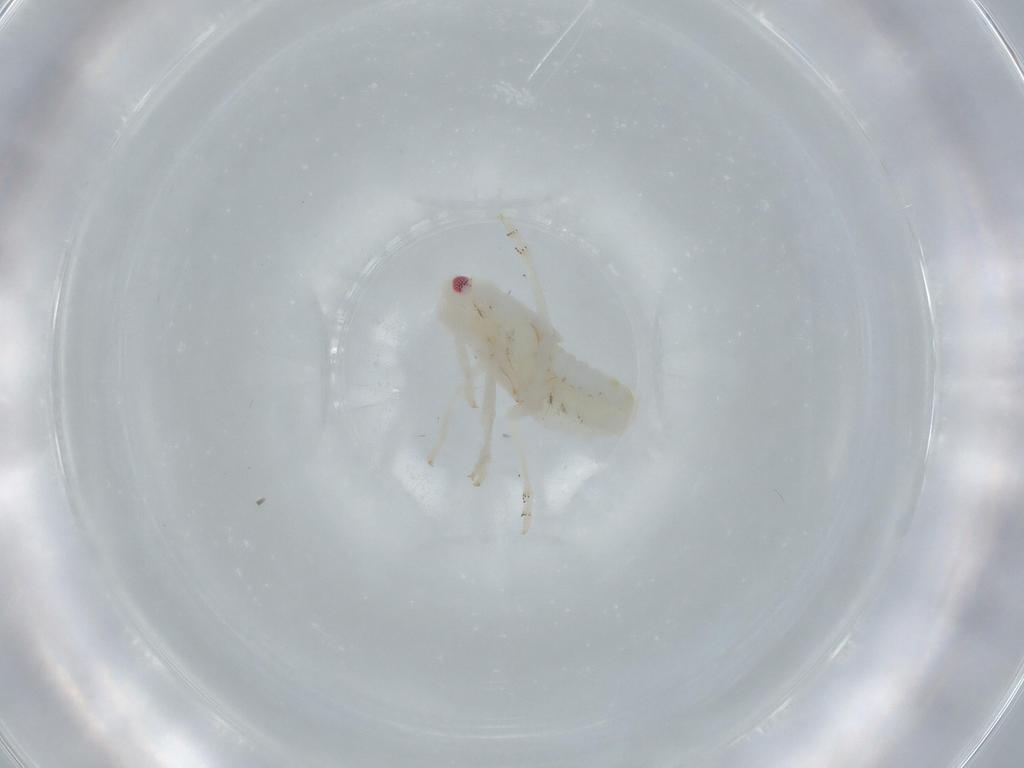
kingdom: Animalia
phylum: Arthropoda
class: Insecta
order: Hemiptera
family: Flatidae
